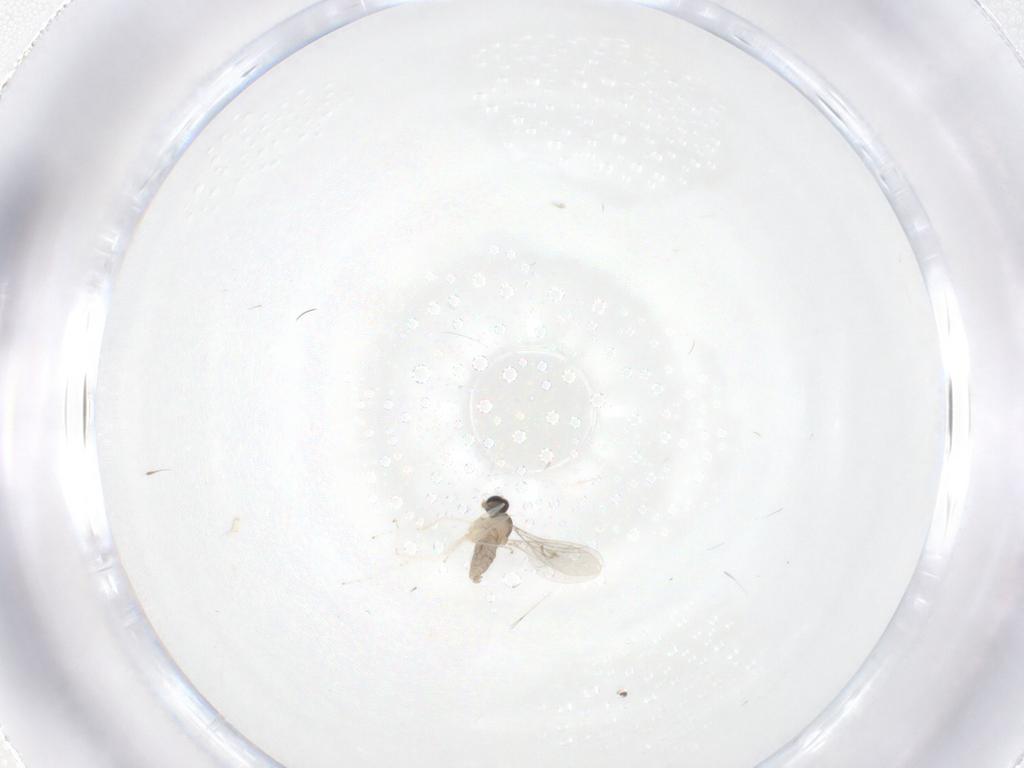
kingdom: Animalia
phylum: Arthropoda
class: Insecta
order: Diptera
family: Cecidomyiidae
